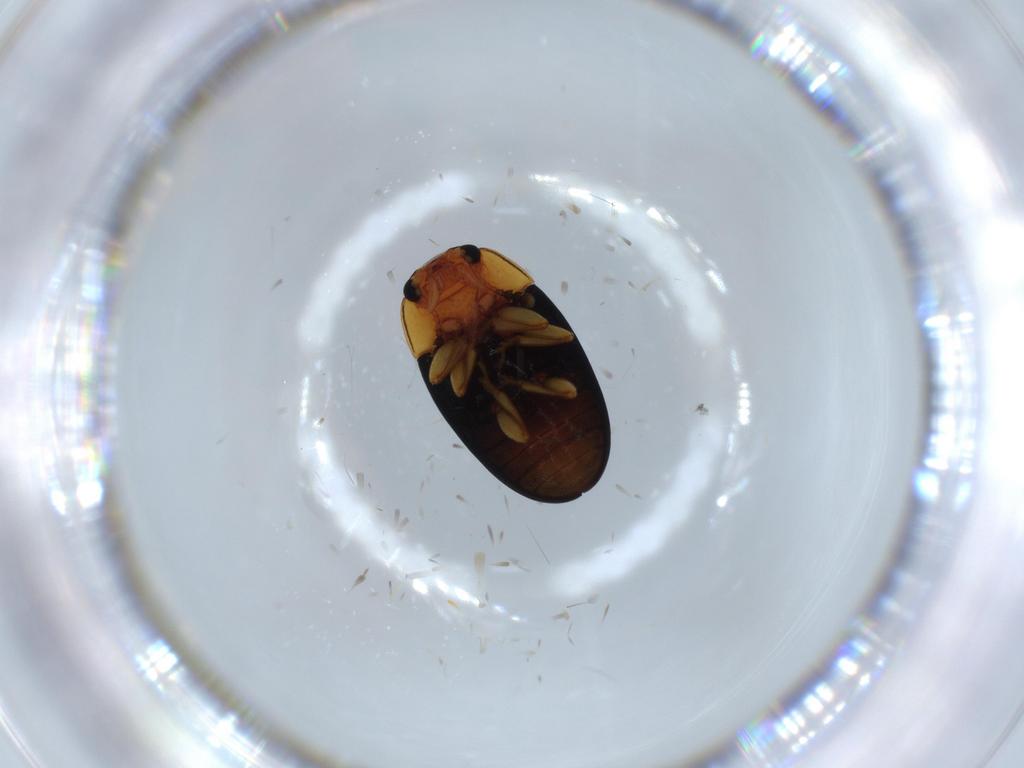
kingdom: Animalia
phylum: Arthropoda
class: Insecta
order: Coleoptera
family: Erotylidae
